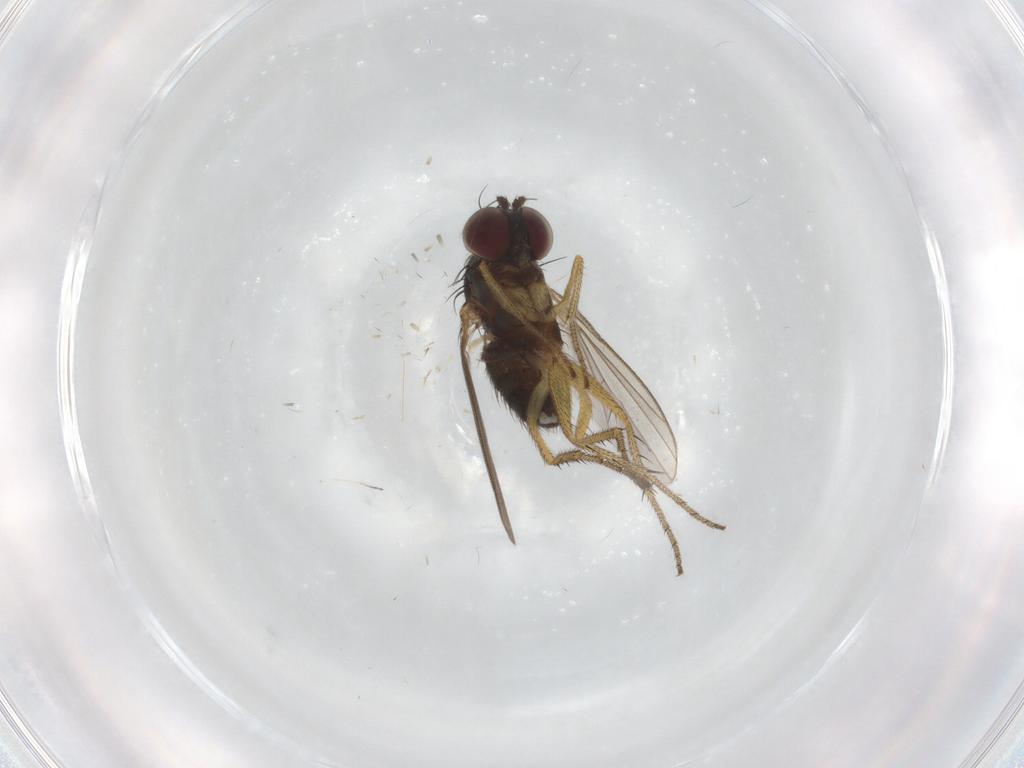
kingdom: Animalia
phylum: Arthropoda
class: Insecta
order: Diptera
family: Dolichopodidae
